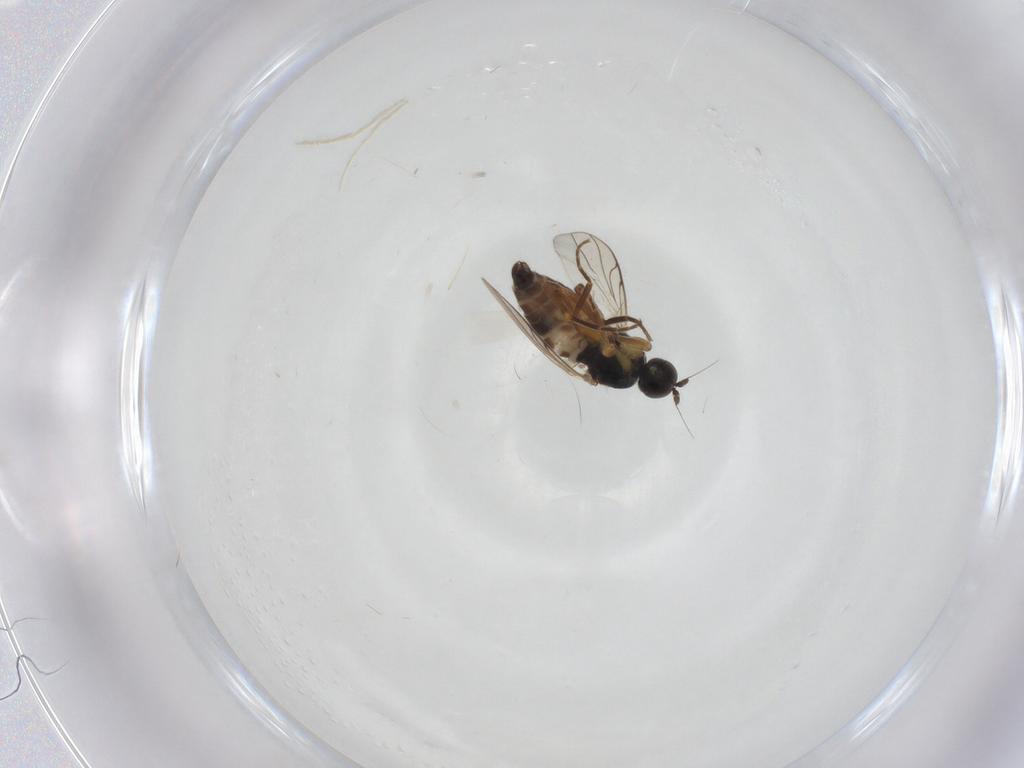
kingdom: Animalia
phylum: Arthropoda
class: Insecta
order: Diptera
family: Hybotidae
